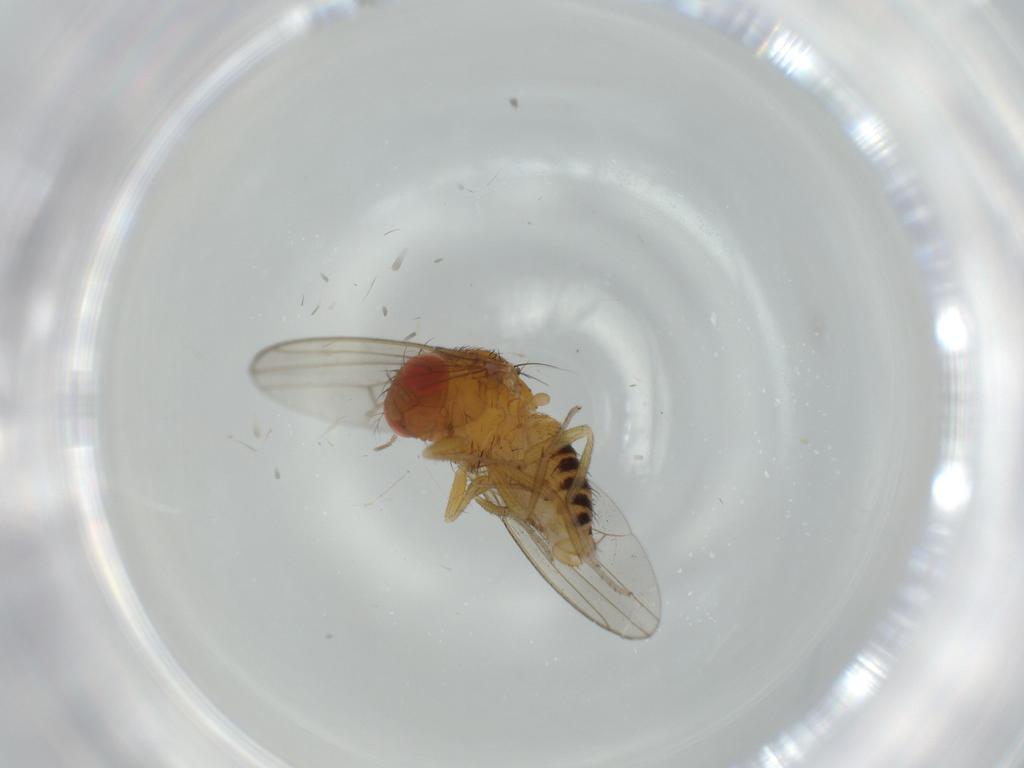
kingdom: Animalia
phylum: Arthropoda
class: Insecta
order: Diptera
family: Drosophilidae
